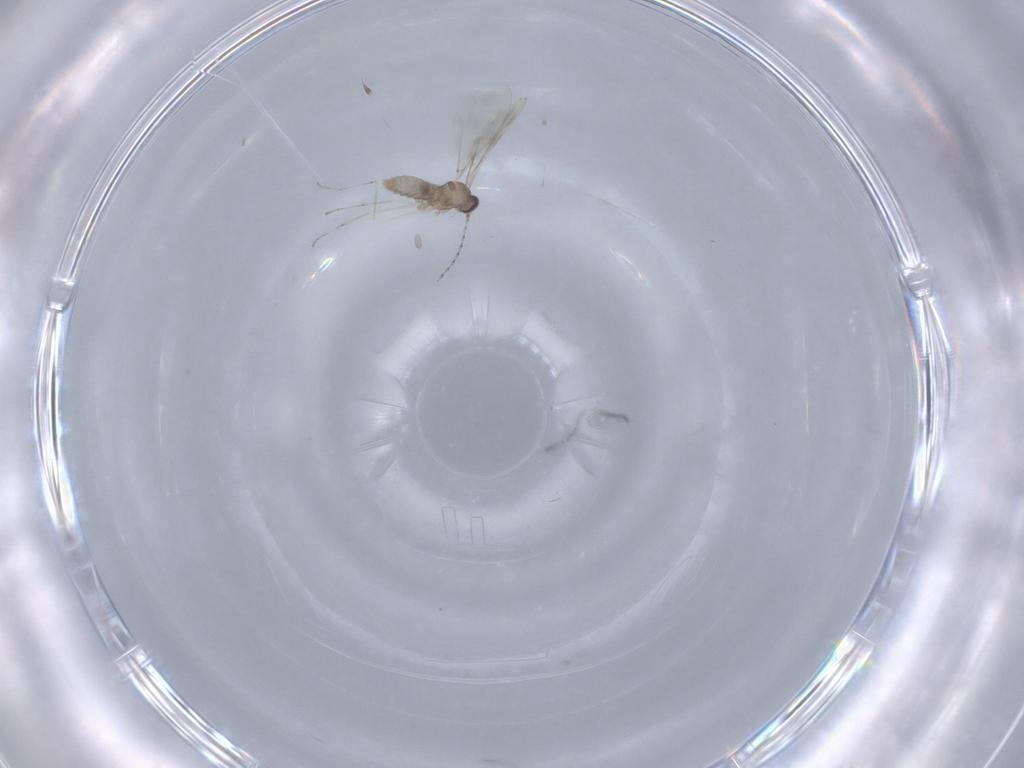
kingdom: Animalia
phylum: Arthropoda
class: Insecta
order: Diptera
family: Cecidomyiidae
